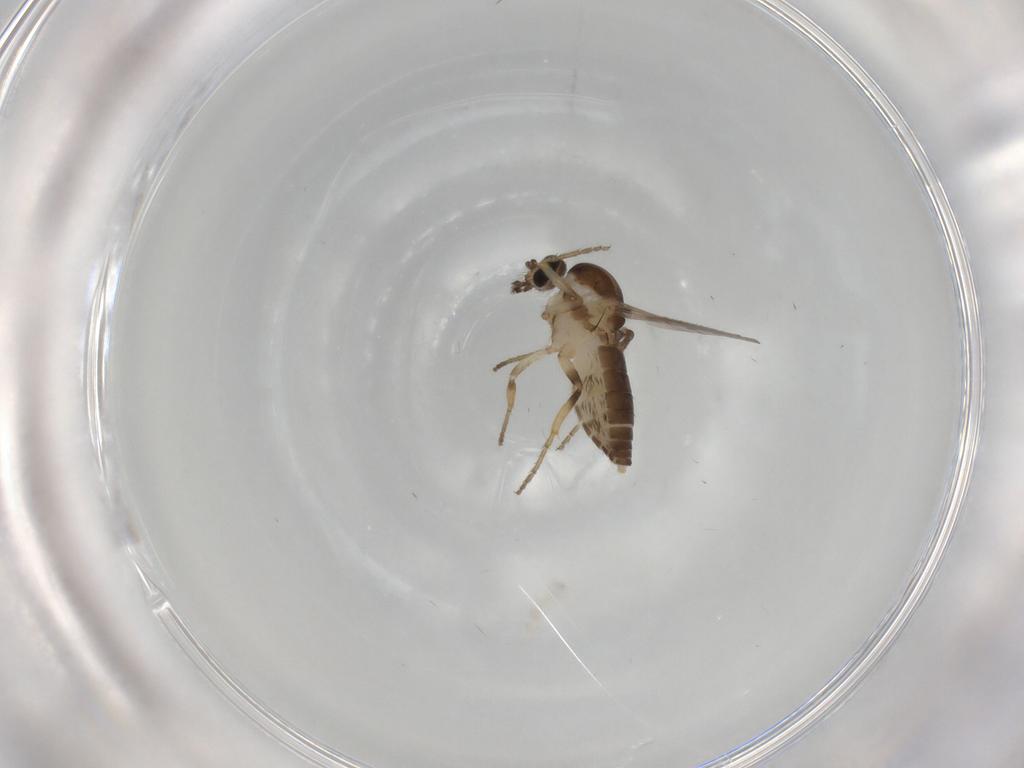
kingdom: Animalia
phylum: Arthropoda
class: Insecta
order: Diptera
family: Ceratopogonidae
